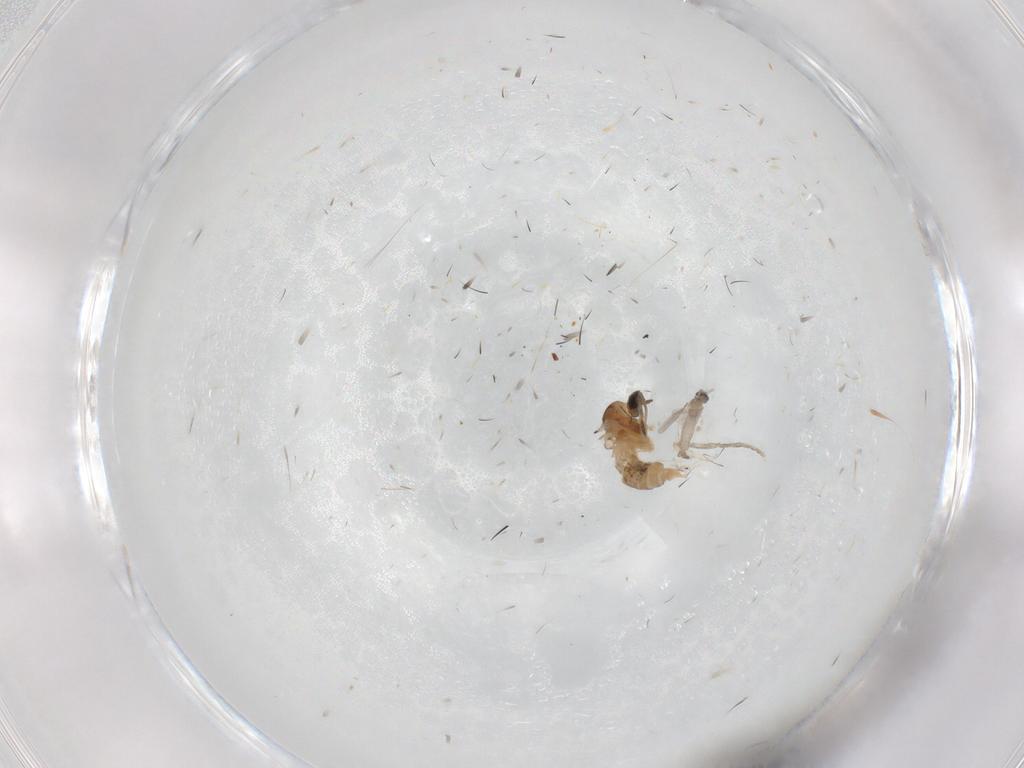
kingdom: Animalia
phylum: Arthropoda
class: Insecta
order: Diptera
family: Cecidomyiidae
